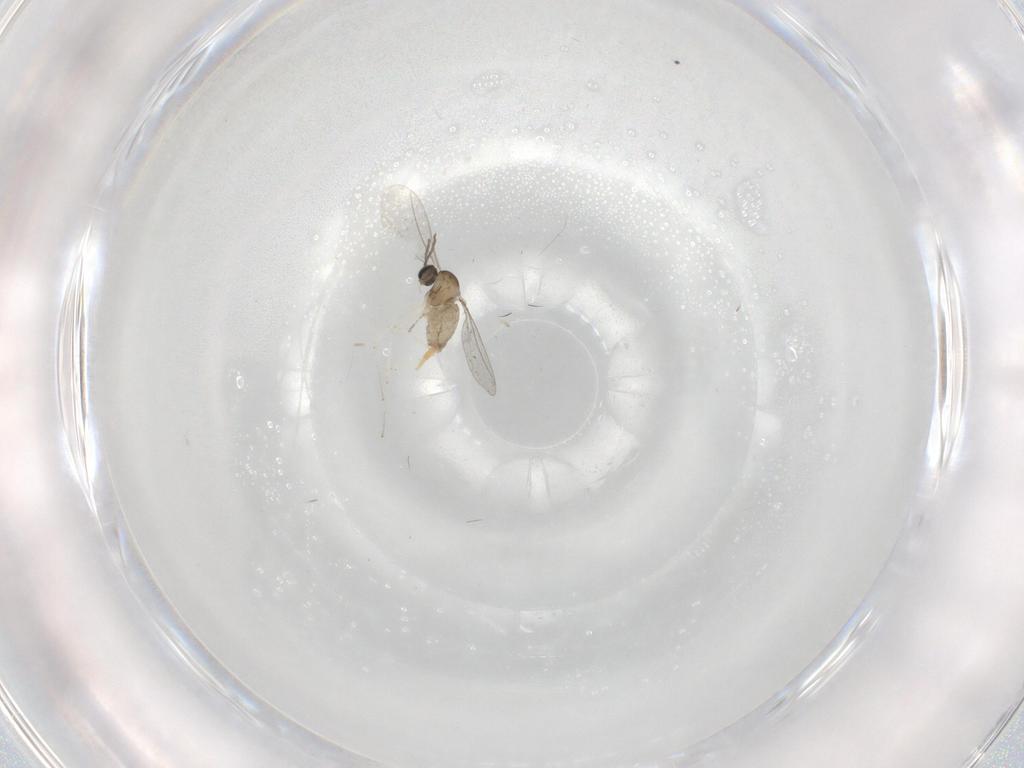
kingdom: Animalia
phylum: Arthropoda
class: Insecta
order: Diptera
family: Cecidomyiidae
